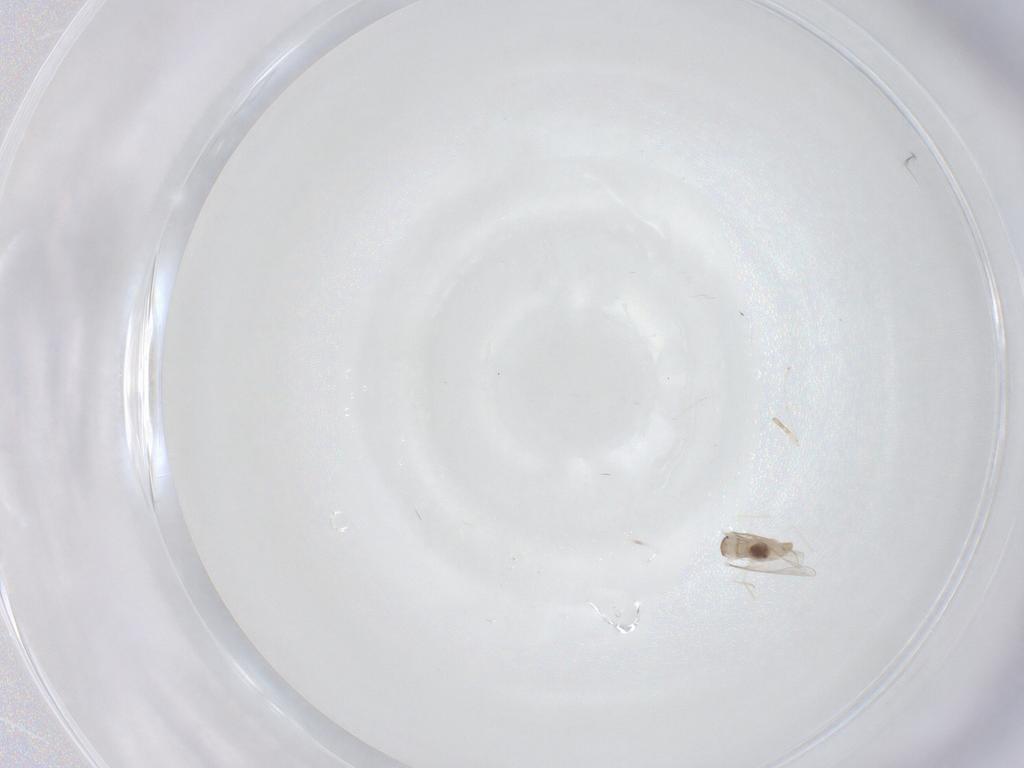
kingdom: Animalia
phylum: Arthropoda
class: Insecta
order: Diptera
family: Cecidomyiidae
